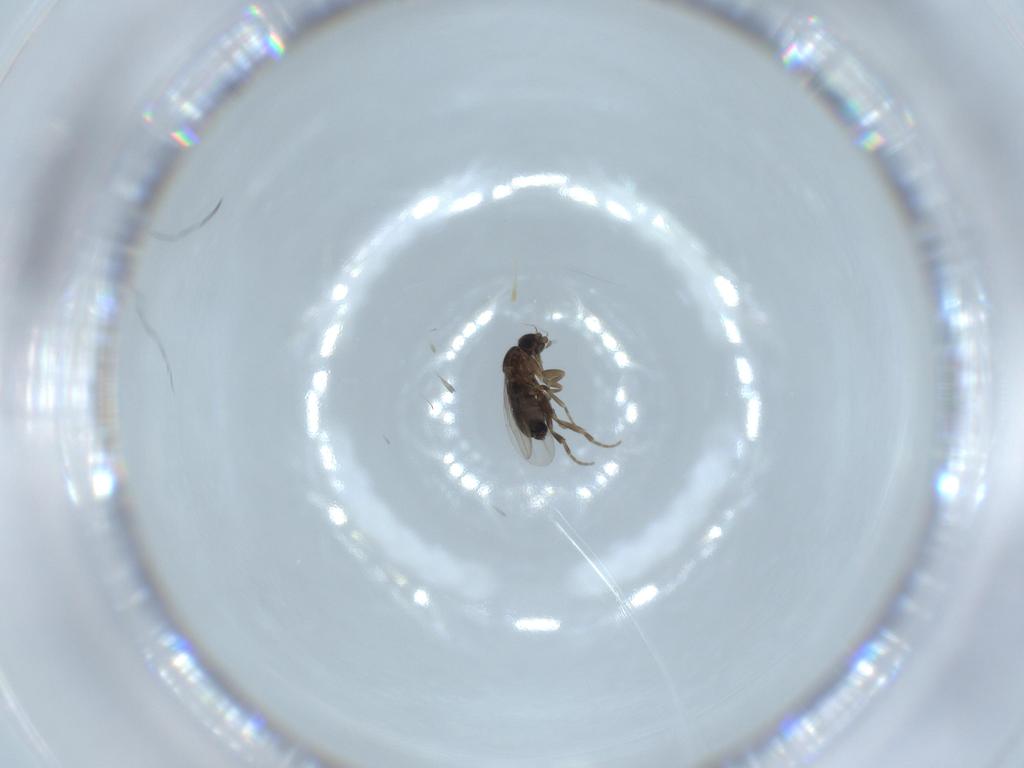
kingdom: Animalia
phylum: Arthropoda
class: Insecta
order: Diptera
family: Phoridae
